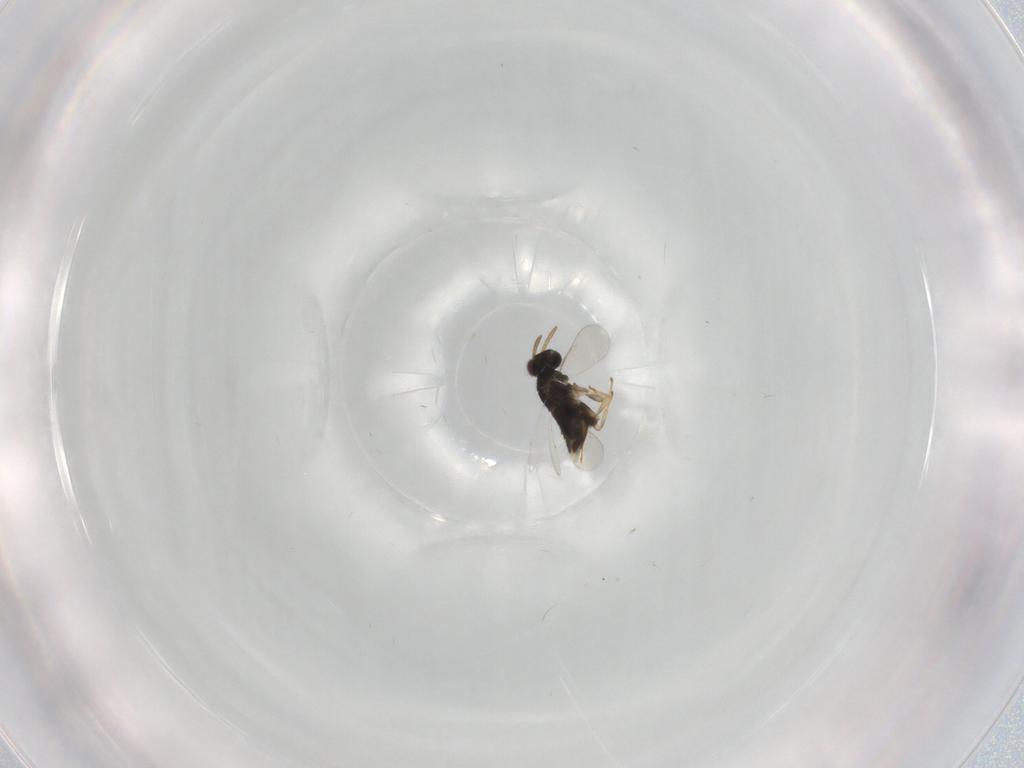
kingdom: Animalia
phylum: Arthropoda
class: Insecta
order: Hymenoptera
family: Aphelinidae
